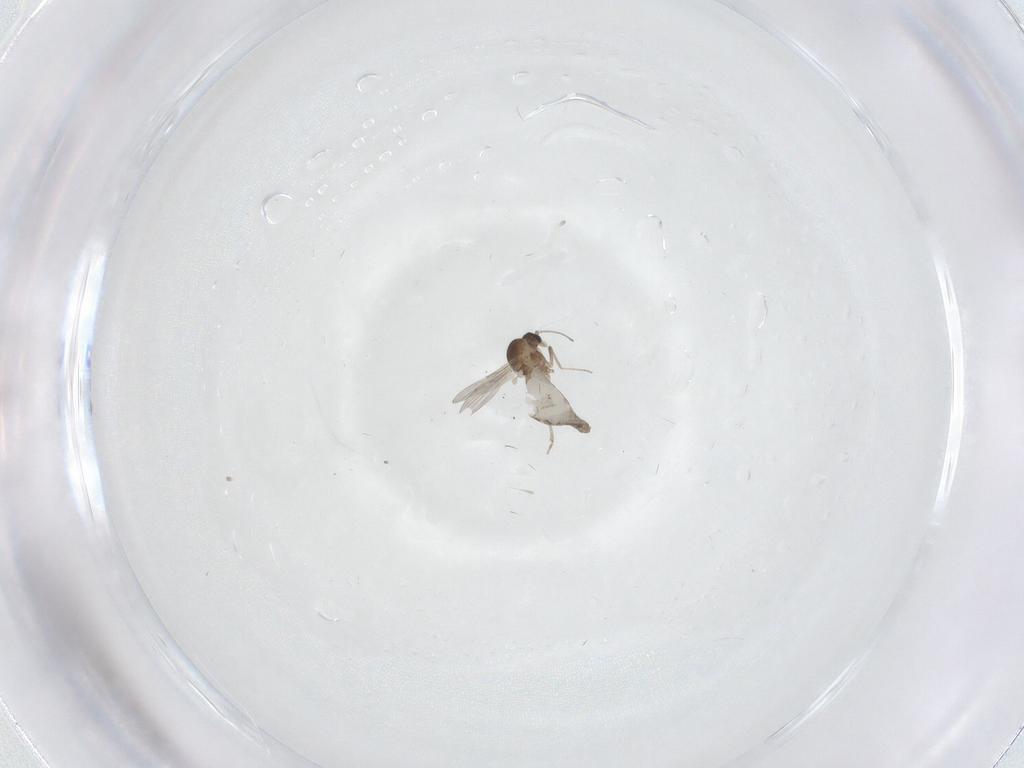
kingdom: Animalia
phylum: Arthropoda
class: Insecta
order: Diptera
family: Ceratopogonidae
